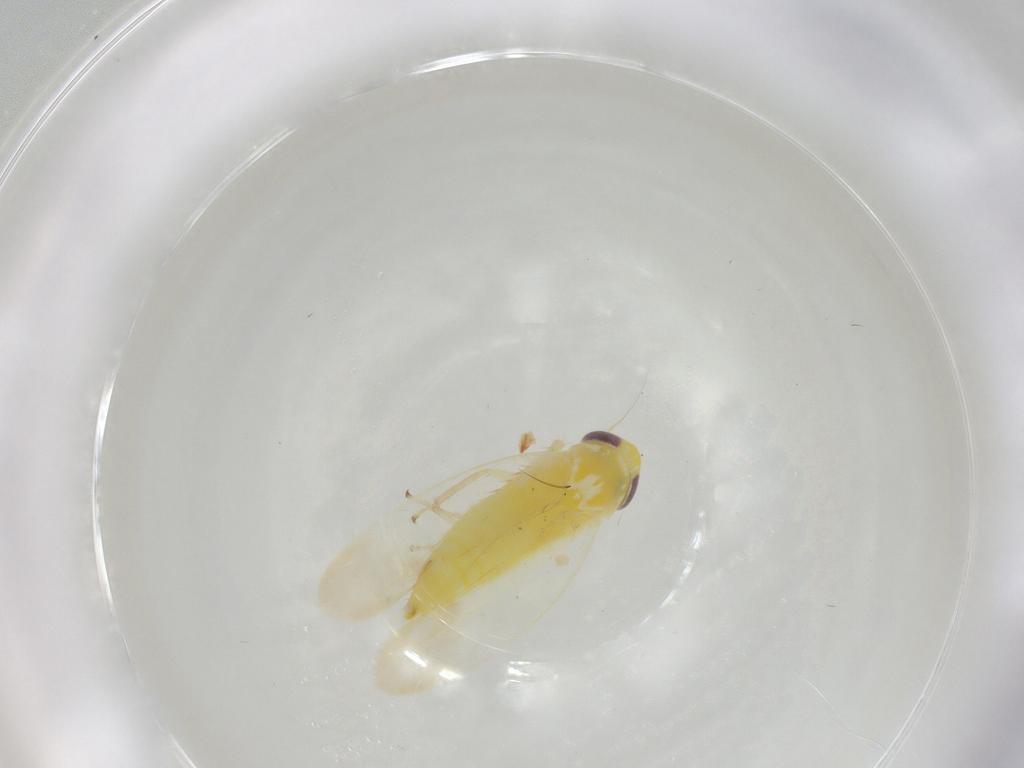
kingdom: Animalia
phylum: Arthropoda
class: Insecta
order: Hemiptera
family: Cicadellidae
